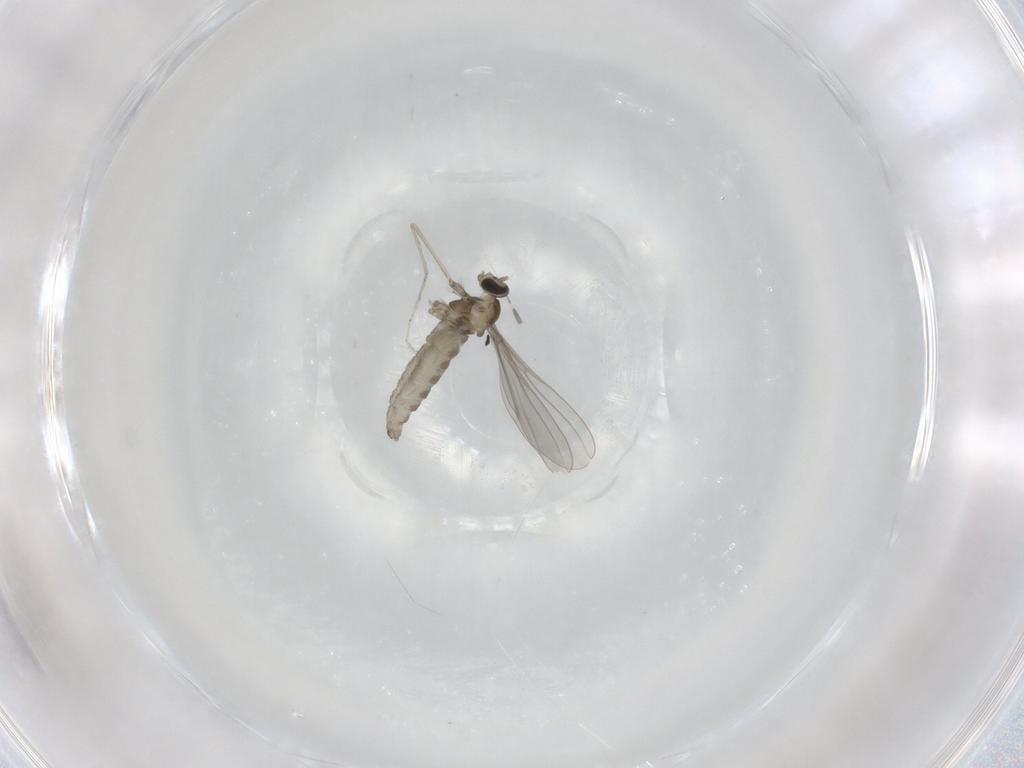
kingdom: Animalia
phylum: Arthropoda
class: Insecta
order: Diptera
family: Cecidomyiidae
